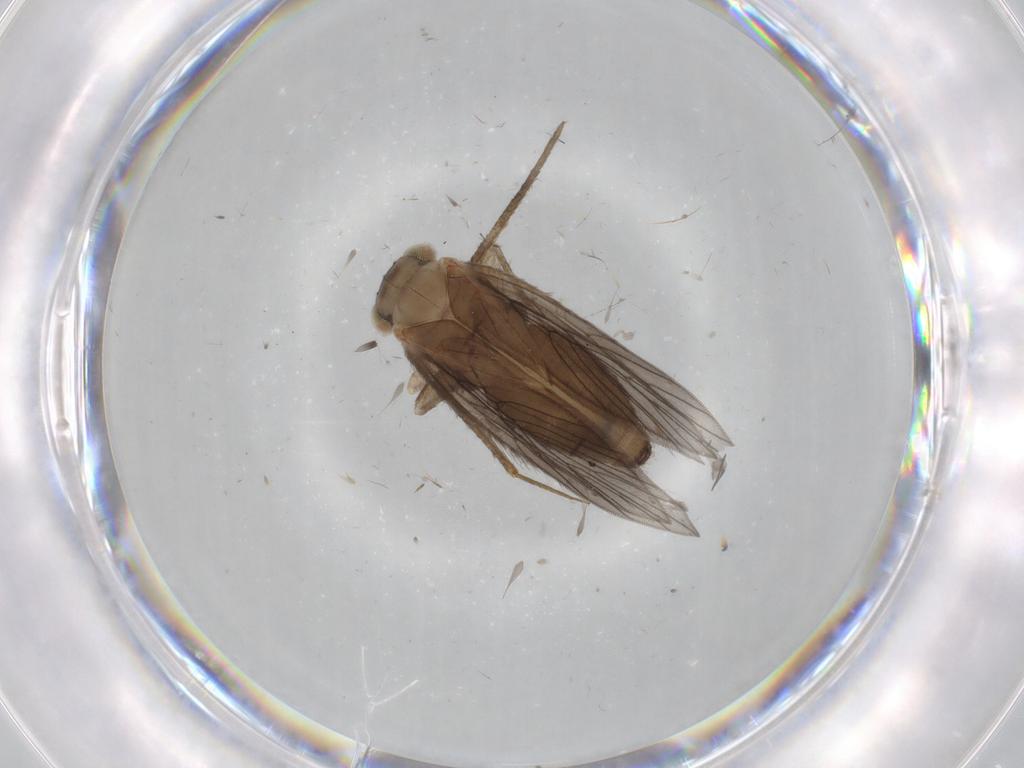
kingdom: Animalia
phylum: Arthropoda
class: Insecta
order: Psocodea
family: Lepidopsocidae
